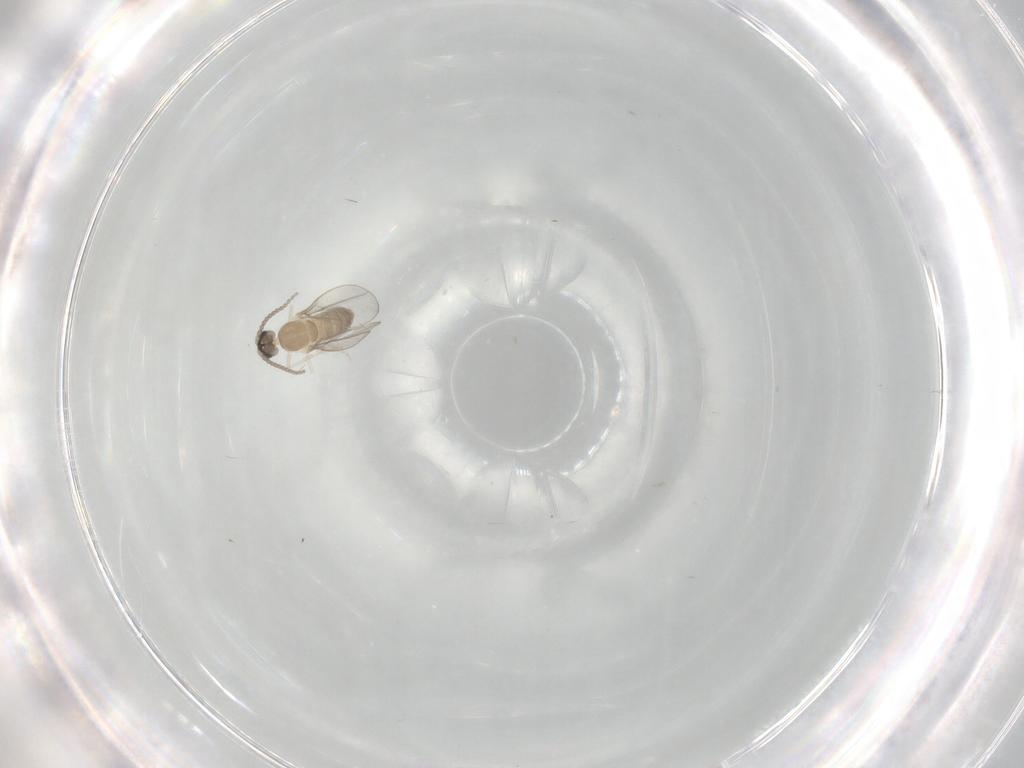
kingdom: Animalia
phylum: Arthropoda
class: Insecta
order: Diptera
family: Cecidomyiidae
